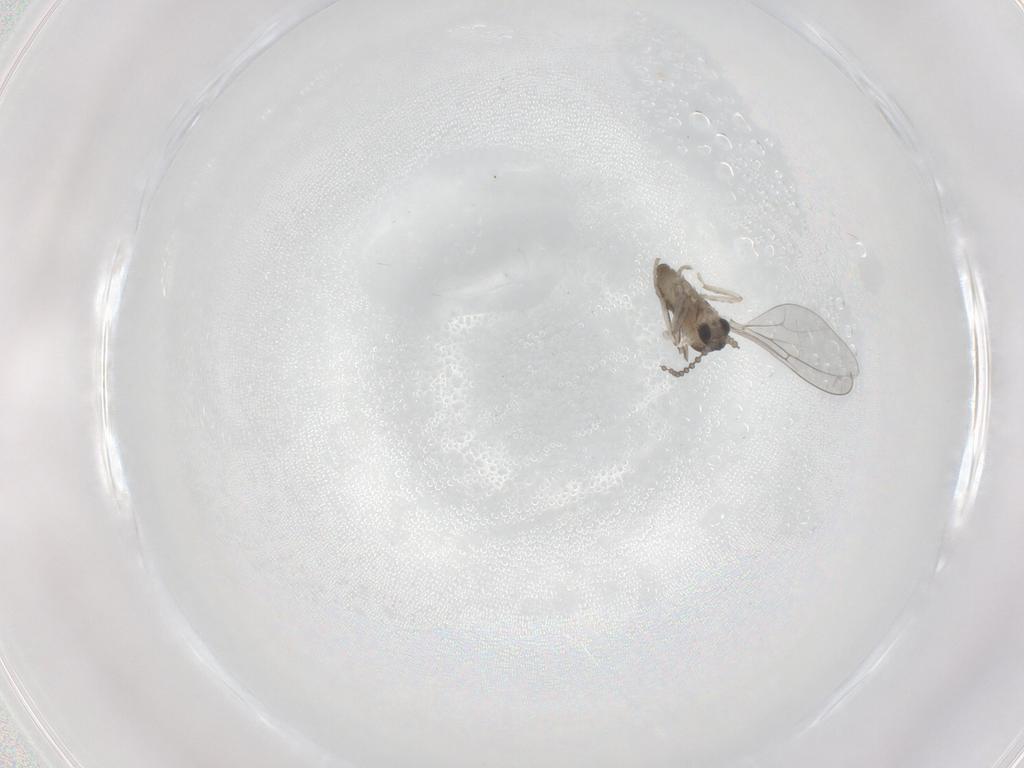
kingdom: Animalia
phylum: Arthropoda
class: Insecta
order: Diptera
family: Cecidomyiidae
